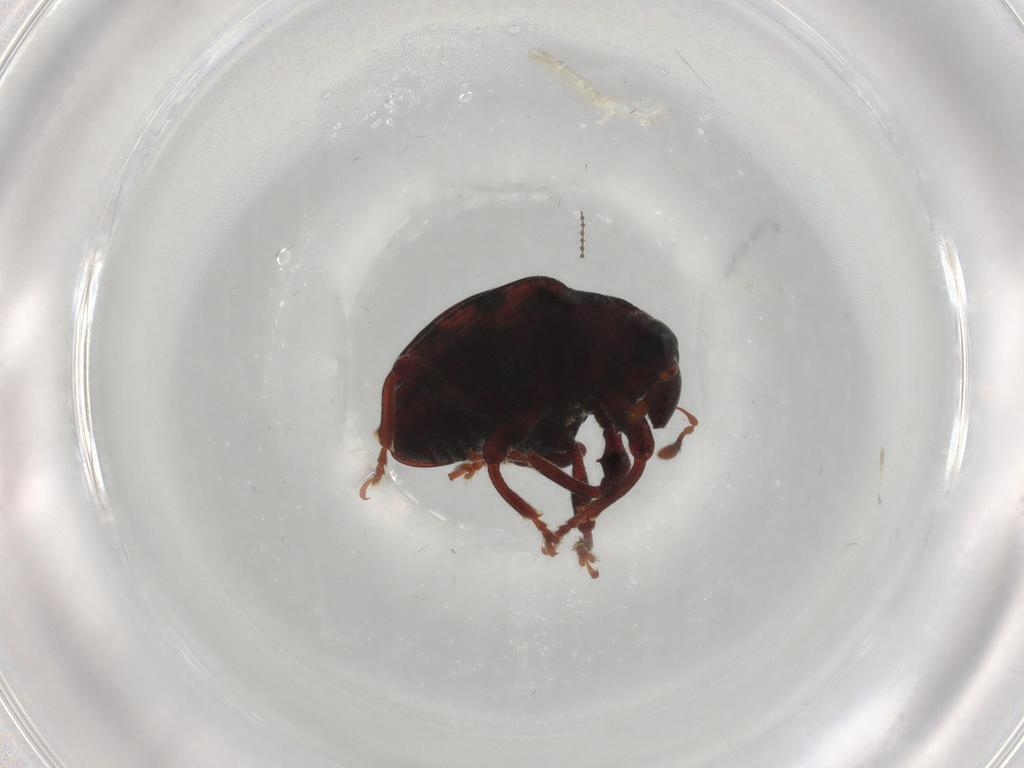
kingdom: Animalia
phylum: Arthropoda
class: Insecta
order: Coleoptera
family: Curculionidae
